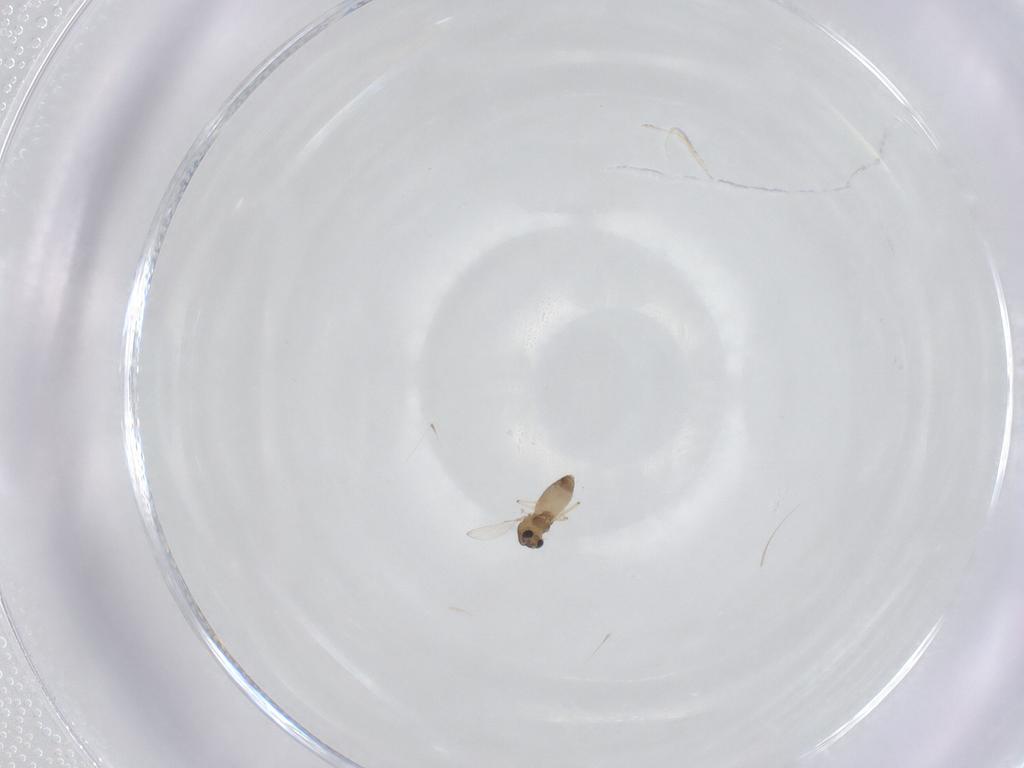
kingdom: Animalia
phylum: Arthropoda
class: Insecta
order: Diptera
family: Chironomidae
